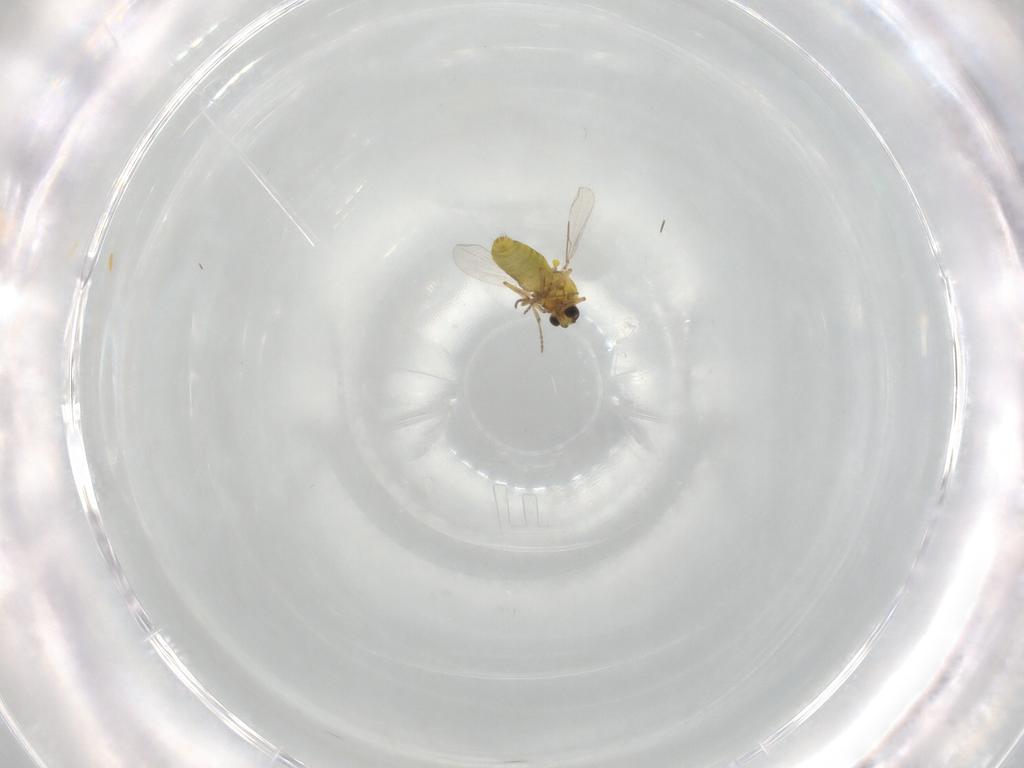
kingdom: Animalia
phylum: Arthropoda
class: Insecta
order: Diptera
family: Ceratopogonidae
